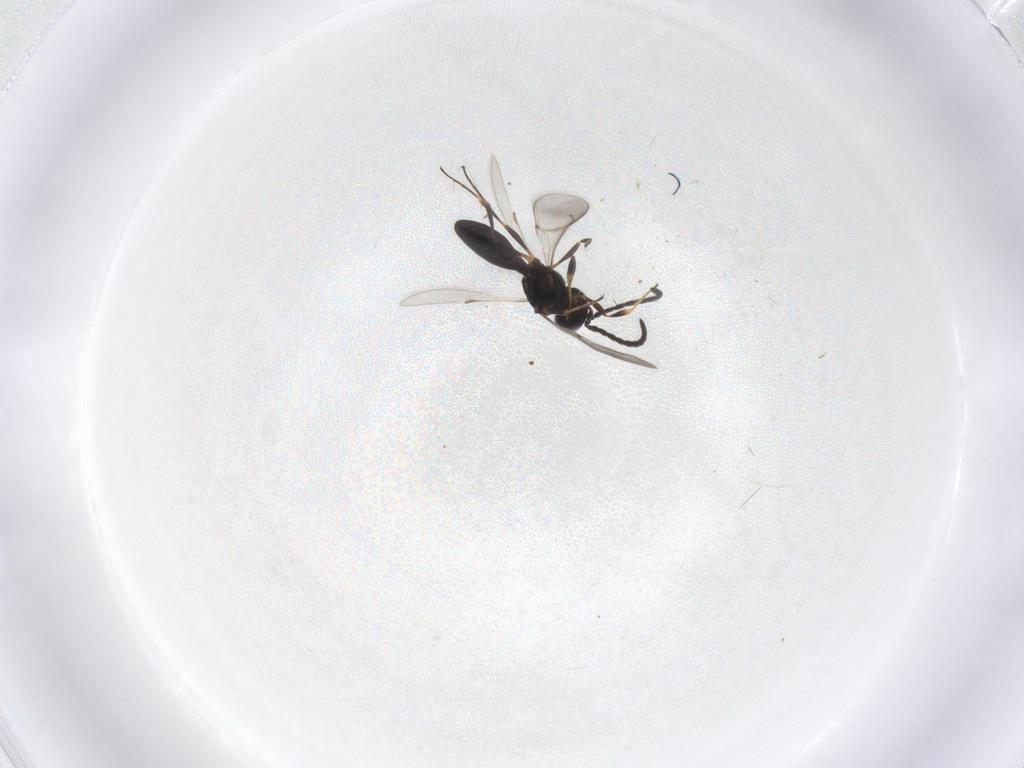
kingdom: Animalia
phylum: Arthropoda
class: Insecta
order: Hymenoptera
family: Scelionidae
